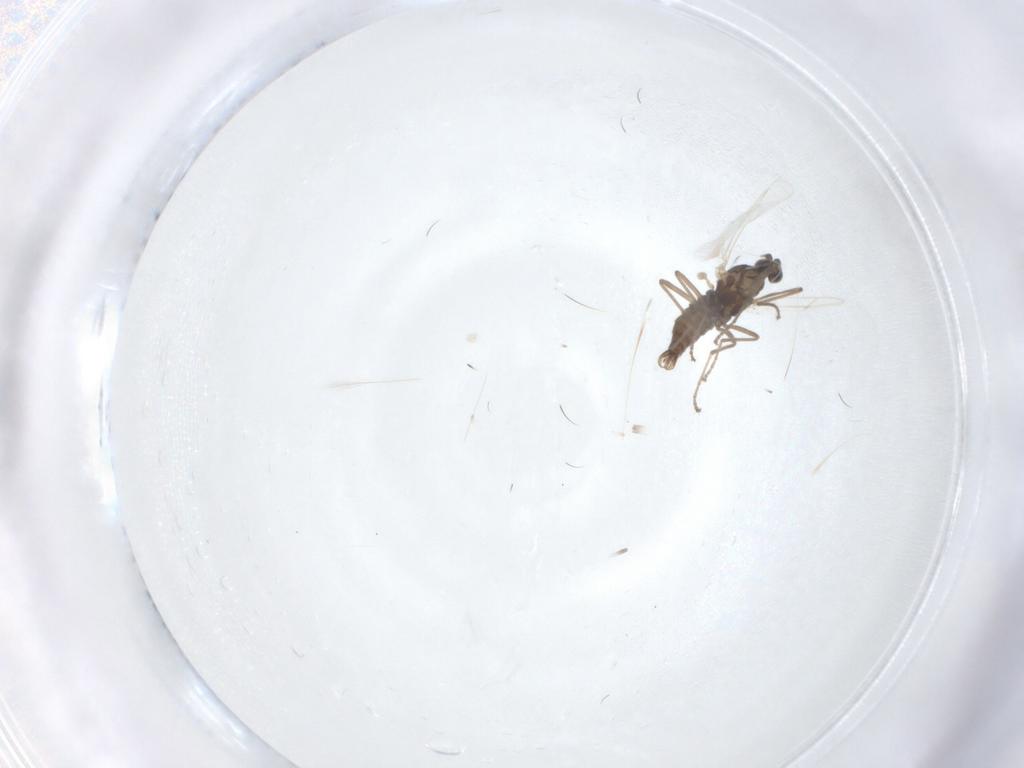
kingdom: Animalia
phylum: Arthropoda
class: Insecta
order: Diptera
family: Cecidomyiidae
